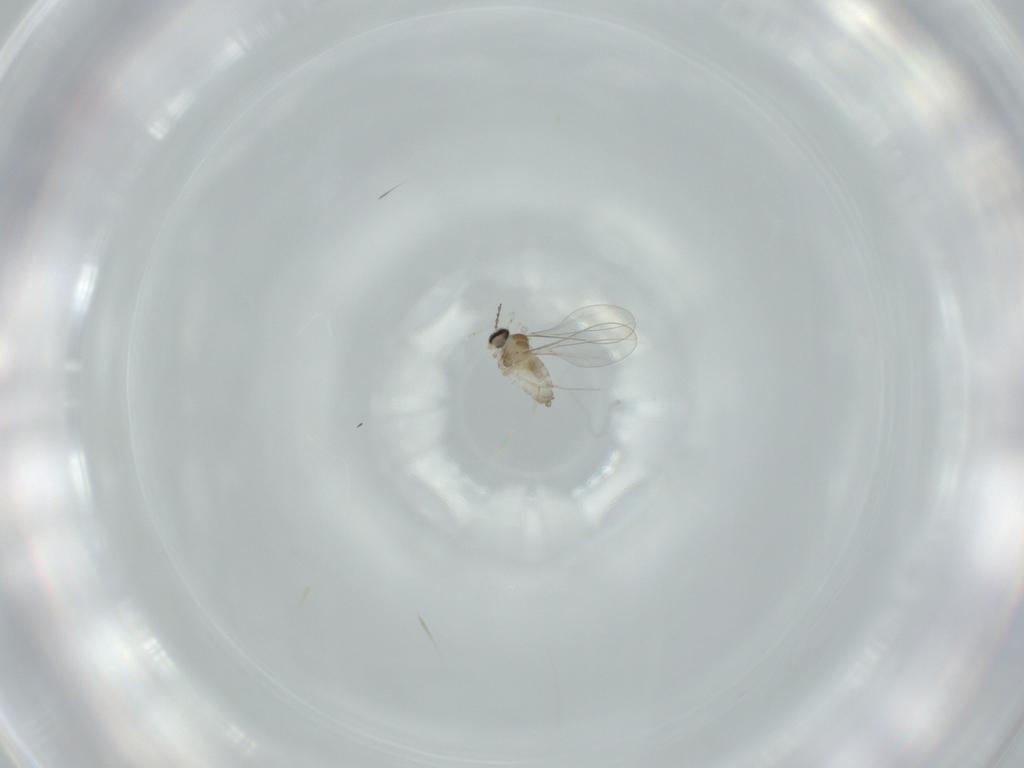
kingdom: Animalia
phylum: Arthropoda
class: Insecta
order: Diptera
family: Cecidomyiidae
